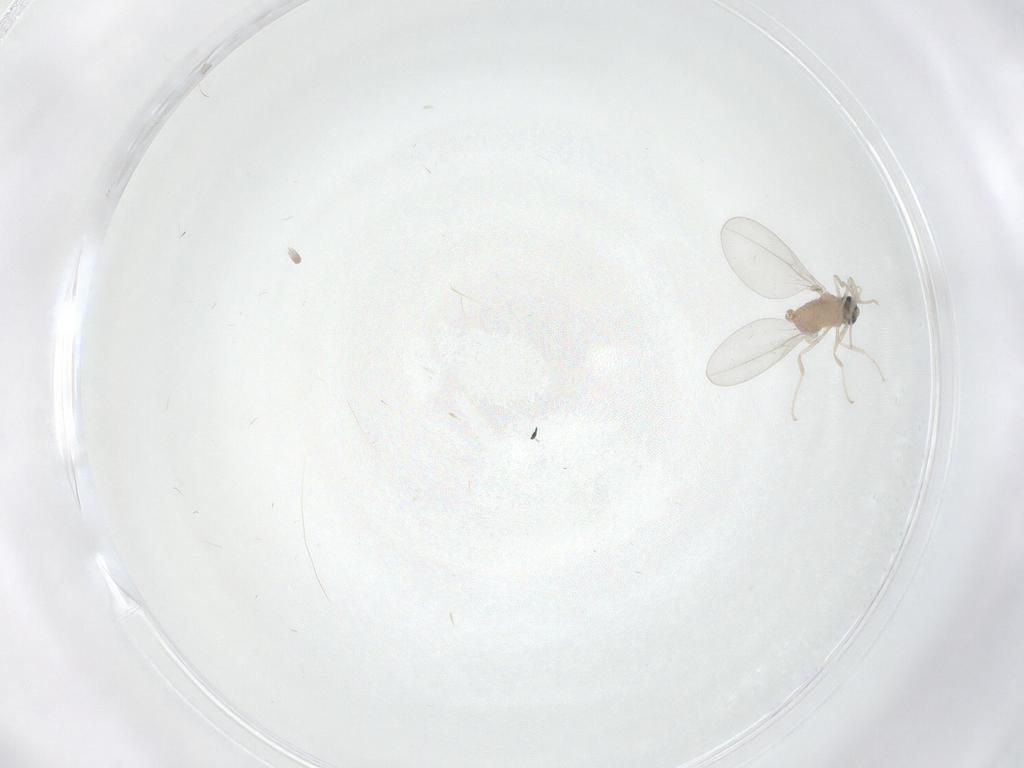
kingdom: Animalia
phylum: Arthropoda
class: Insecta
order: Diptera
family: Cecidomyiidae
